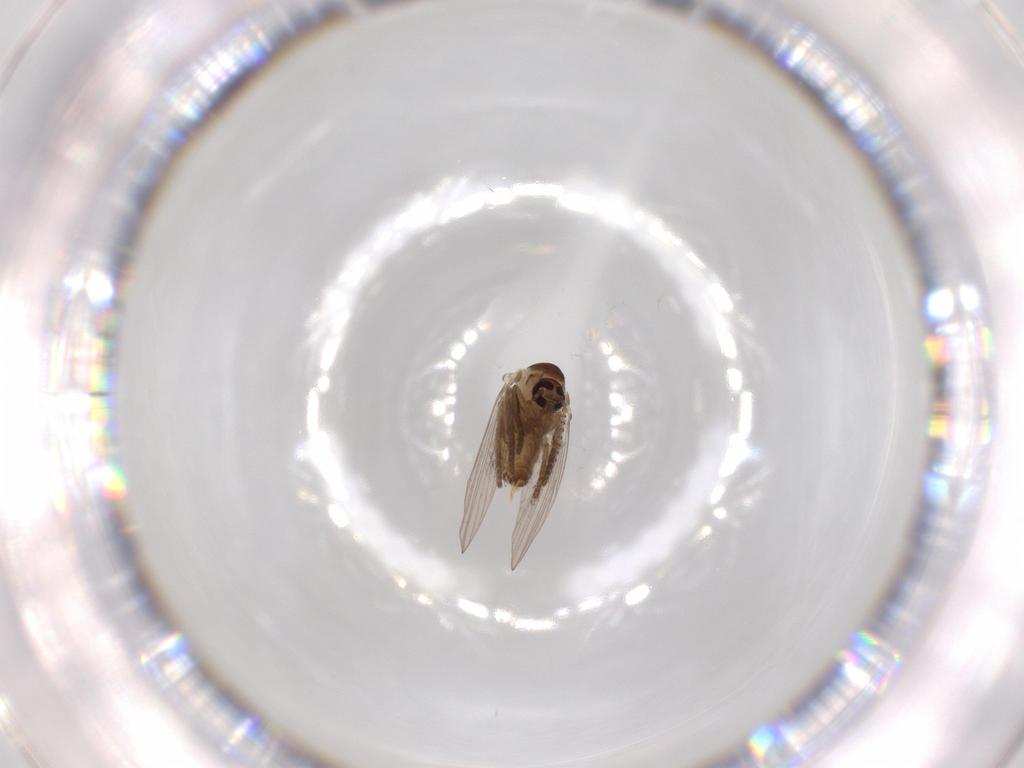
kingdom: Animalia
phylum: Arthropoda
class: Insecta
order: Diptera
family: Psychodidae
